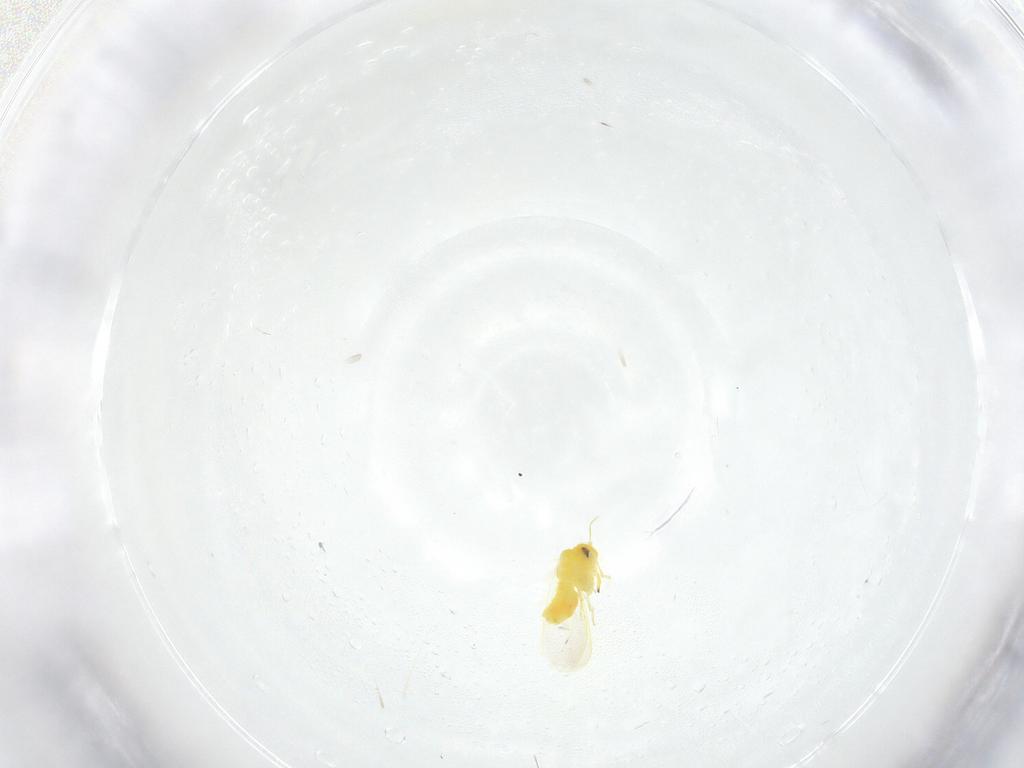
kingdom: Animalia
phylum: Arthropoda
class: Insecta
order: Hemiptera
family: Aleyrodidae
